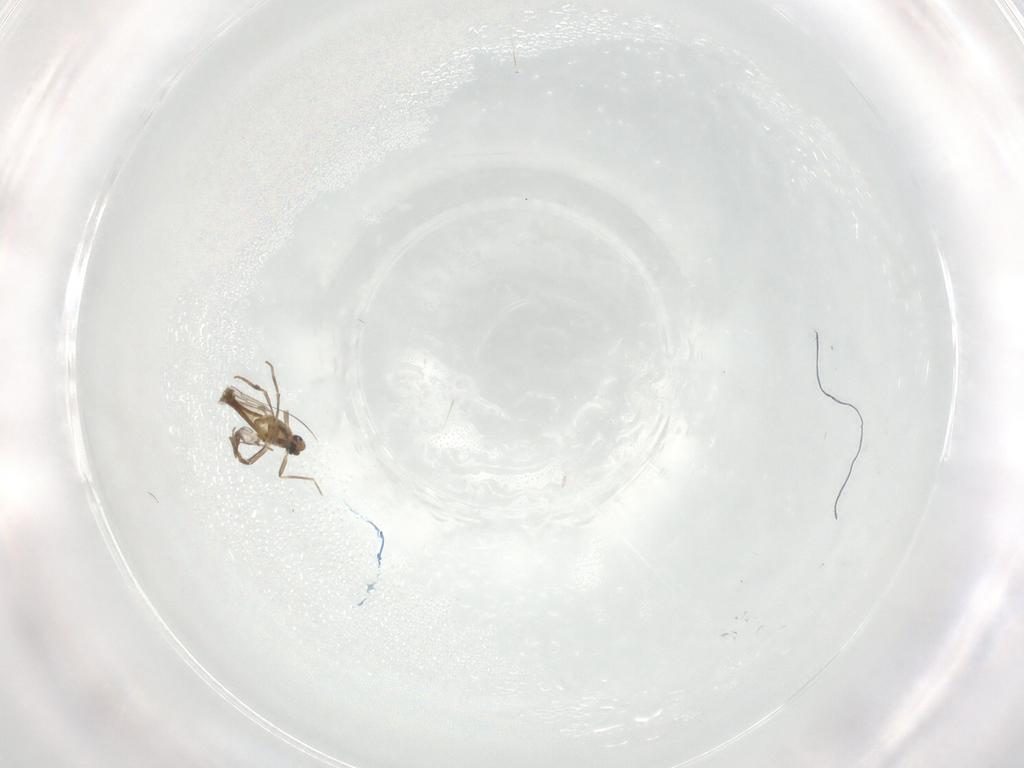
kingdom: Animalia
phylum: Arthropoda
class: Insecta
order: Diptera
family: Chironomidae
